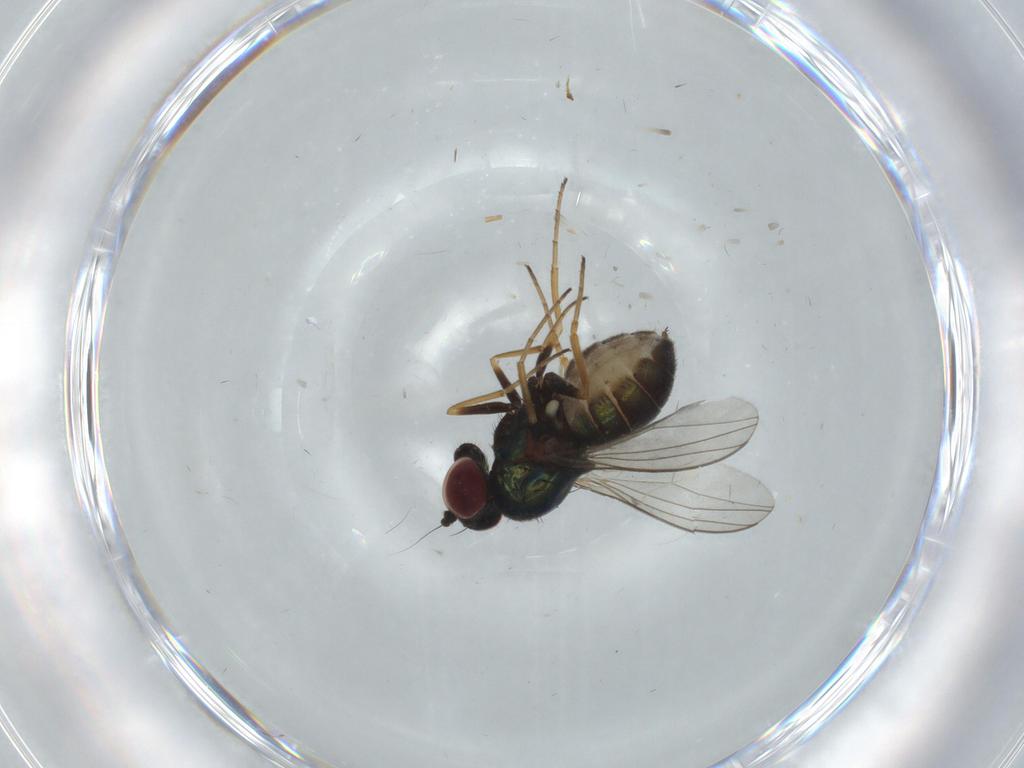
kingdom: Animalia
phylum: Arthropoda
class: Insecta
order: Diptera
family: Dolichopodidae
